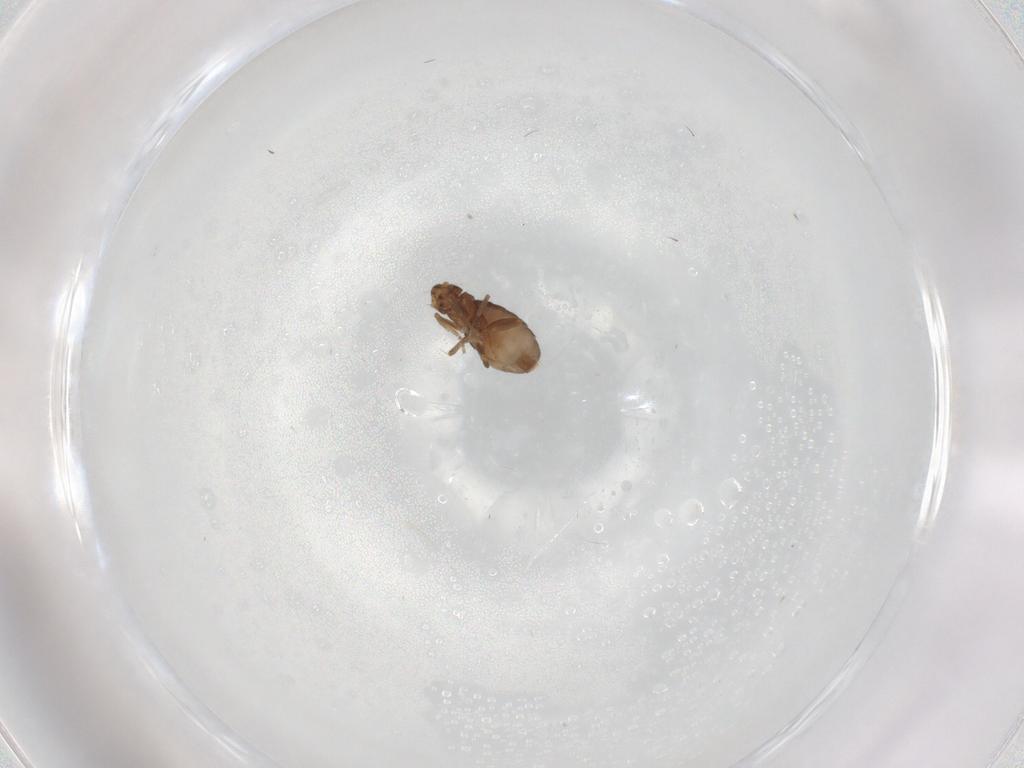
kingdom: Animalia
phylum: Arthropoda
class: Insecta
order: Diptera
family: Phoridae
